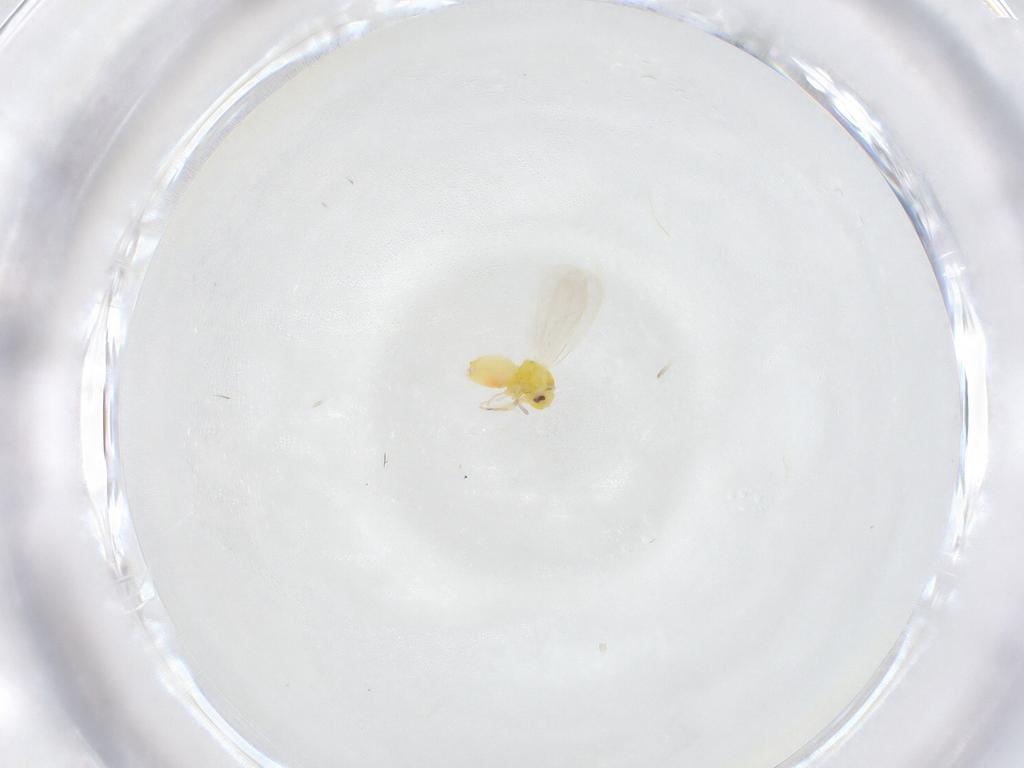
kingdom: Animalia
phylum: Arthropoda
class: Insecta
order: Hemiptera
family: Aleyrodidae
